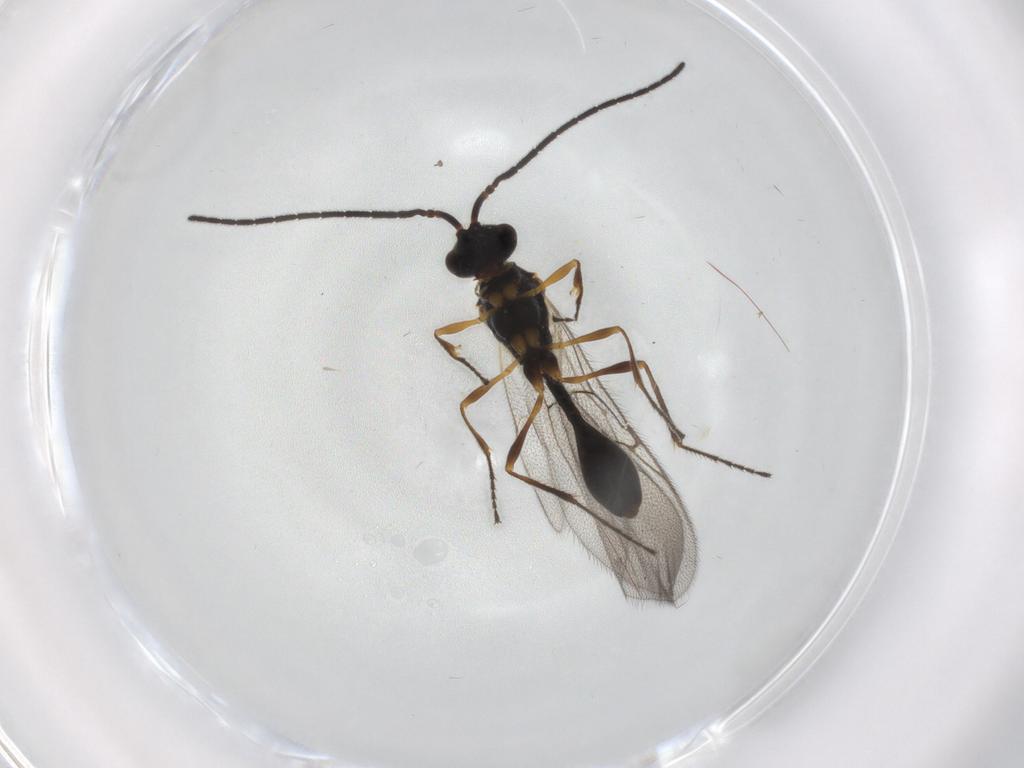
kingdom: Animalia
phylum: Arthropoda
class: Insecta
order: Hymenoptera
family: Diapriidae
